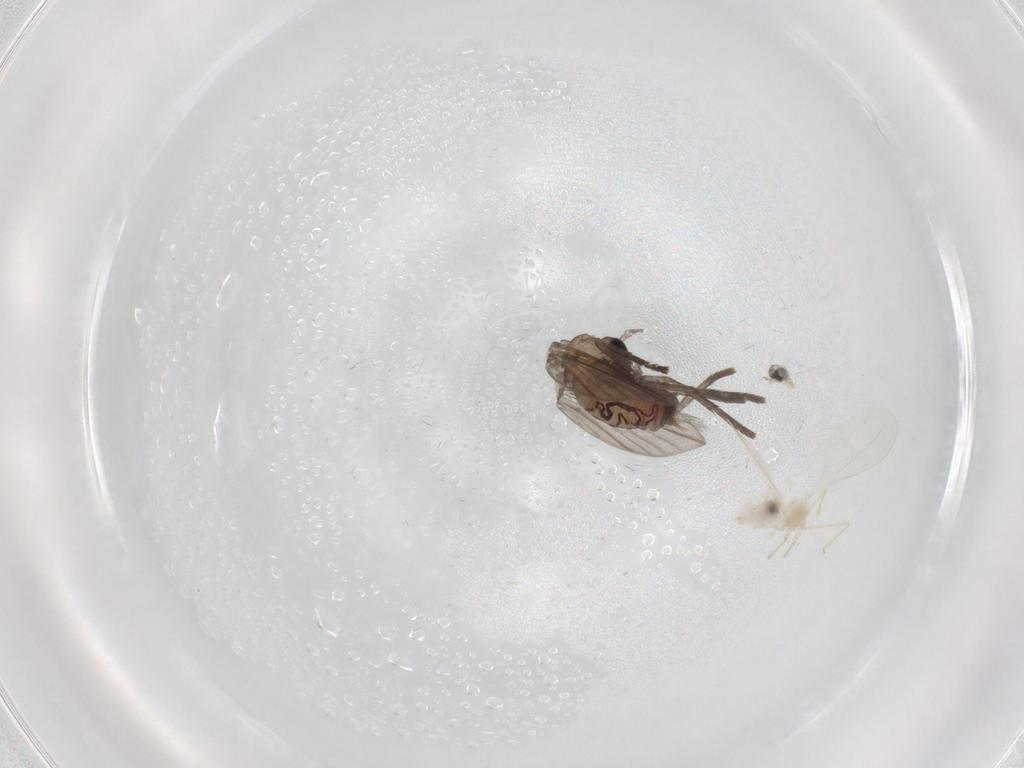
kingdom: Animalia
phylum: Arthropoda
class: Insecta
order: Diptera
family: Psychodidae
